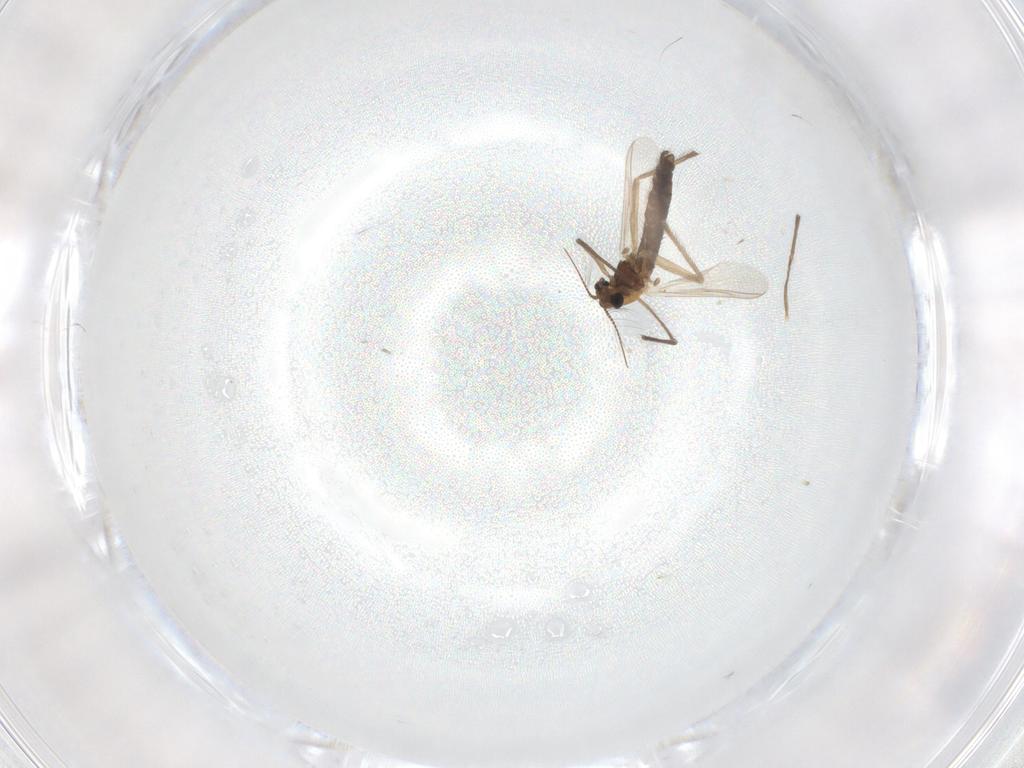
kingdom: Animalia
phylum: Arthropoda
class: Insecta
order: Diptera
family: Chironomidae
